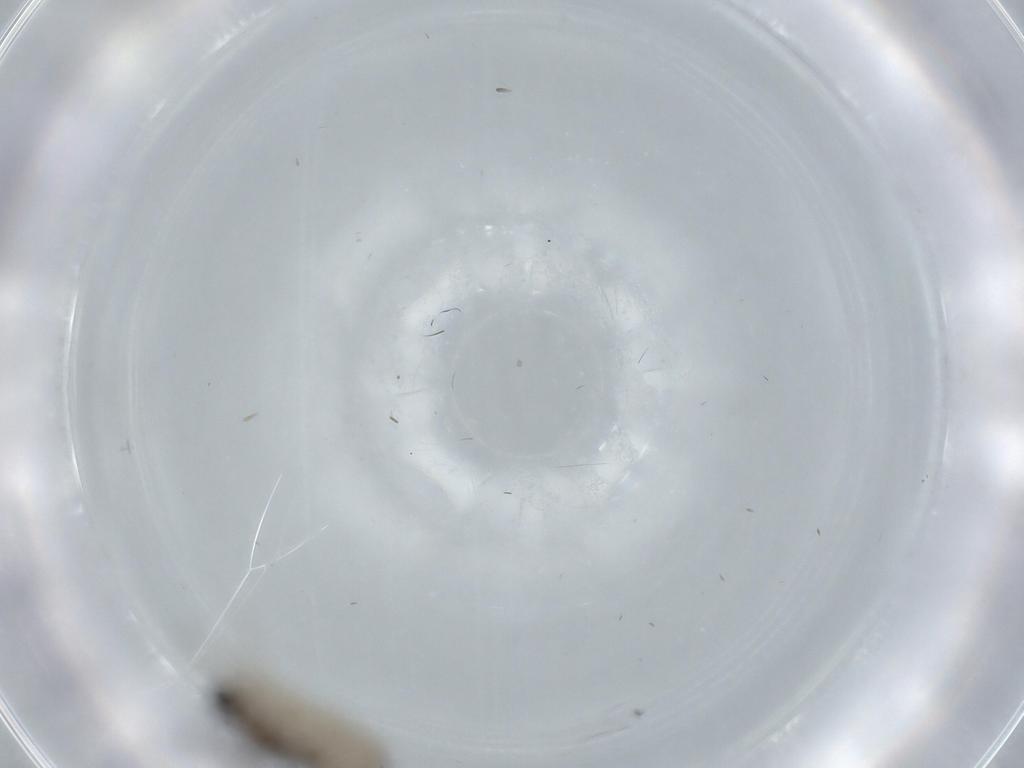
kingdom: Animalia
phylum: Arthropoda
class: Insecta
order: Lepidoptera
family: Gracillariidae
